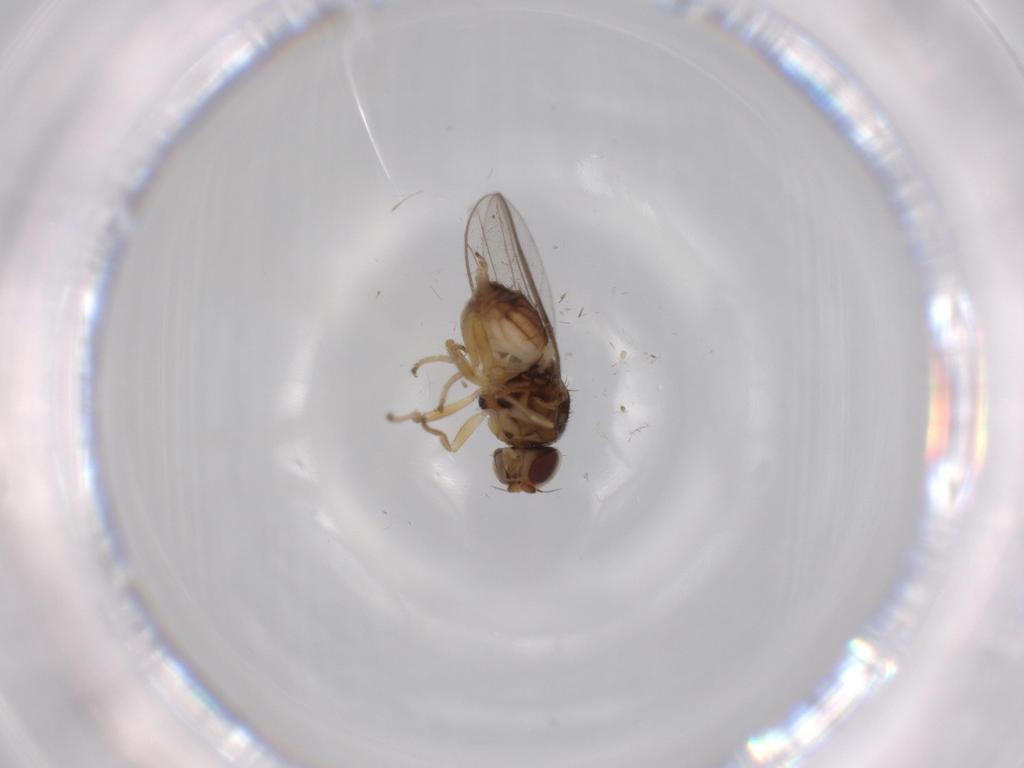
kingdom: Animalia
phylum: Arthropoda
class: Insecta
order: Diptera
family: Chloropidae
